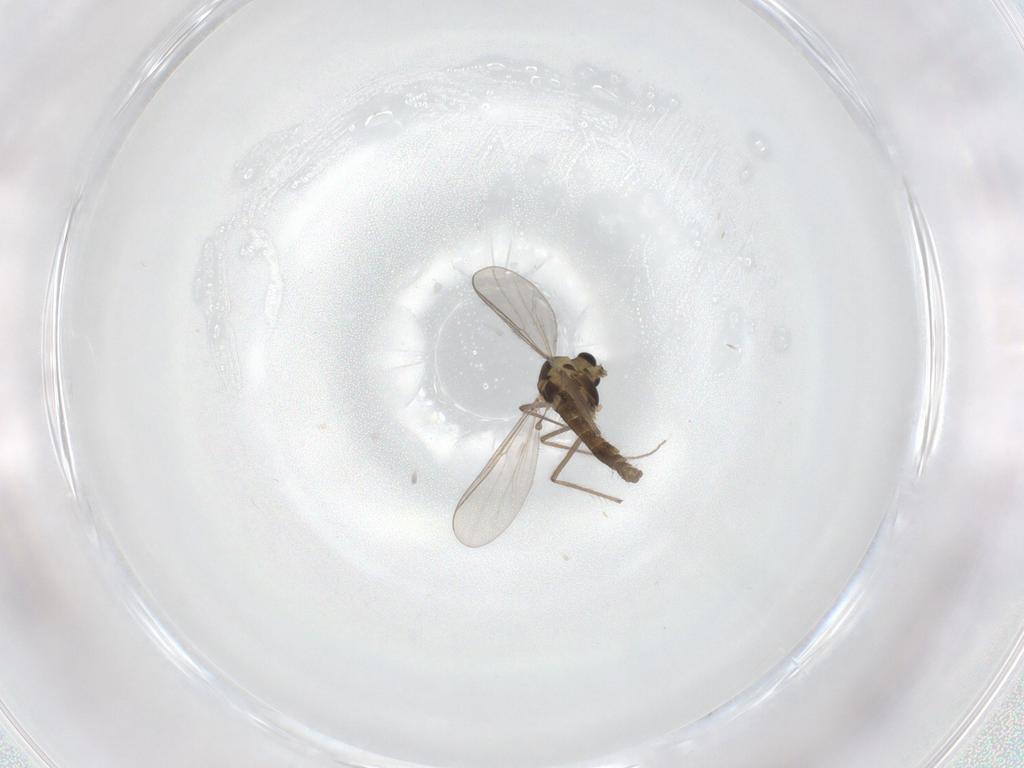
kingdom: Animalia
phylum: Arthropoda
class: Insecta
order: Diptera
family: Chironomidae
